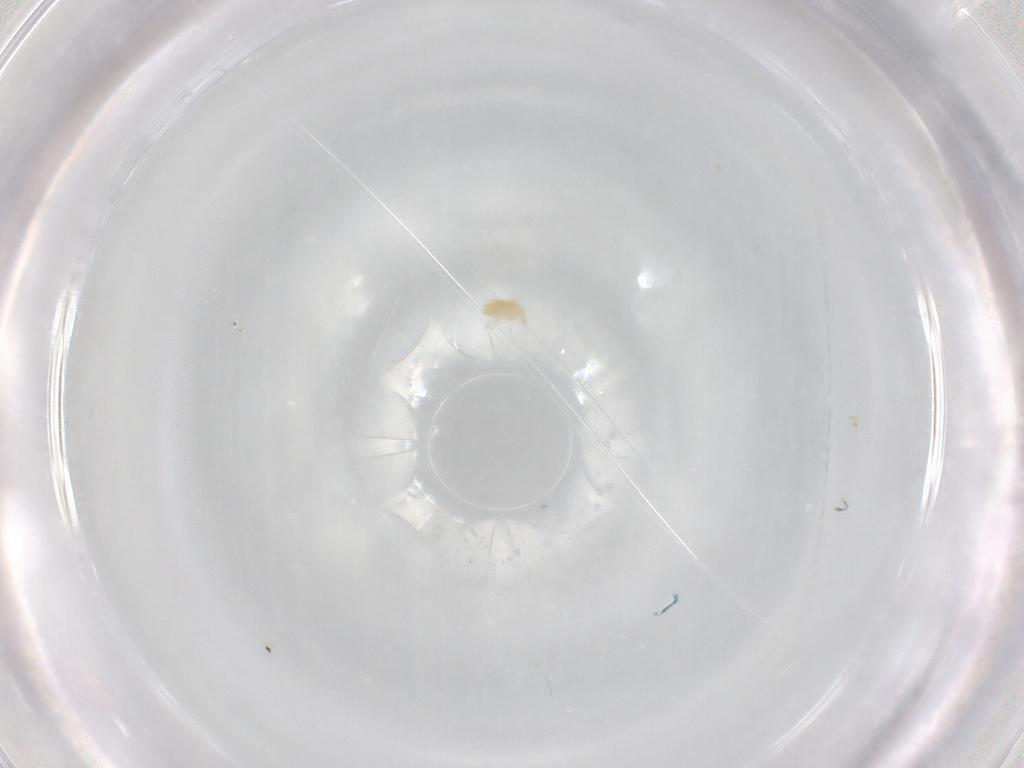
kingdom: Animalia
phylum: Arthropoda
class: Arachnida
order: Trombidiformes
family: Eupodidae
